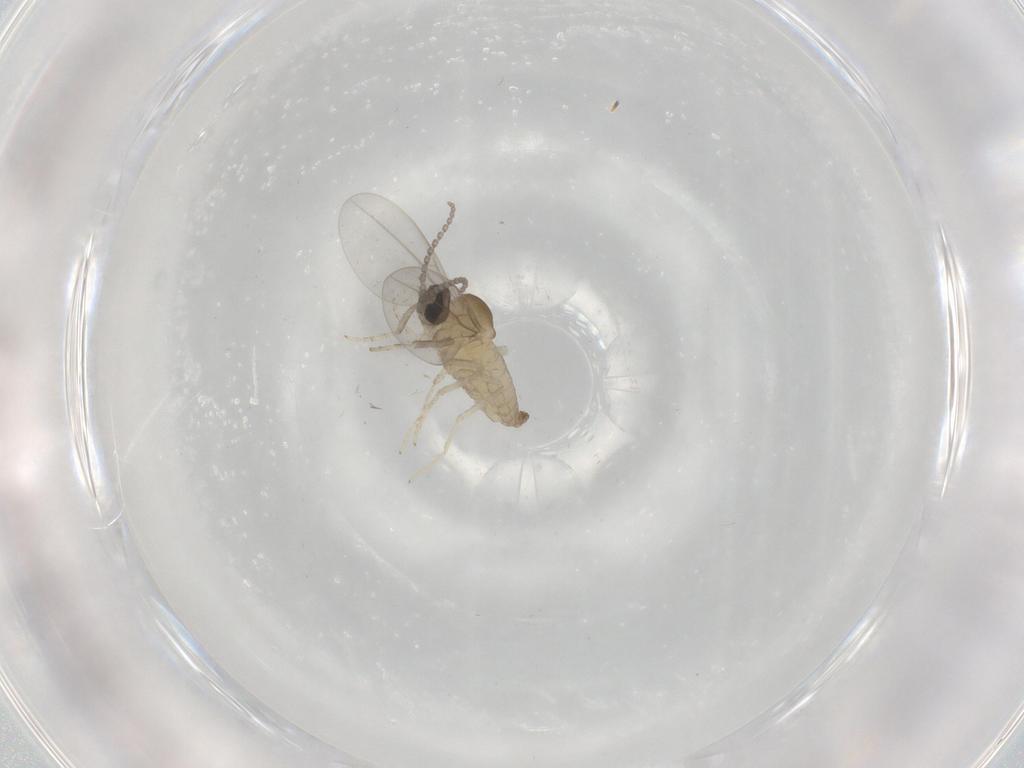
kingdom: Animalia
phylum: Arthropoda
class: Insecta
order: Diptera
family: Cecidomyiidae
